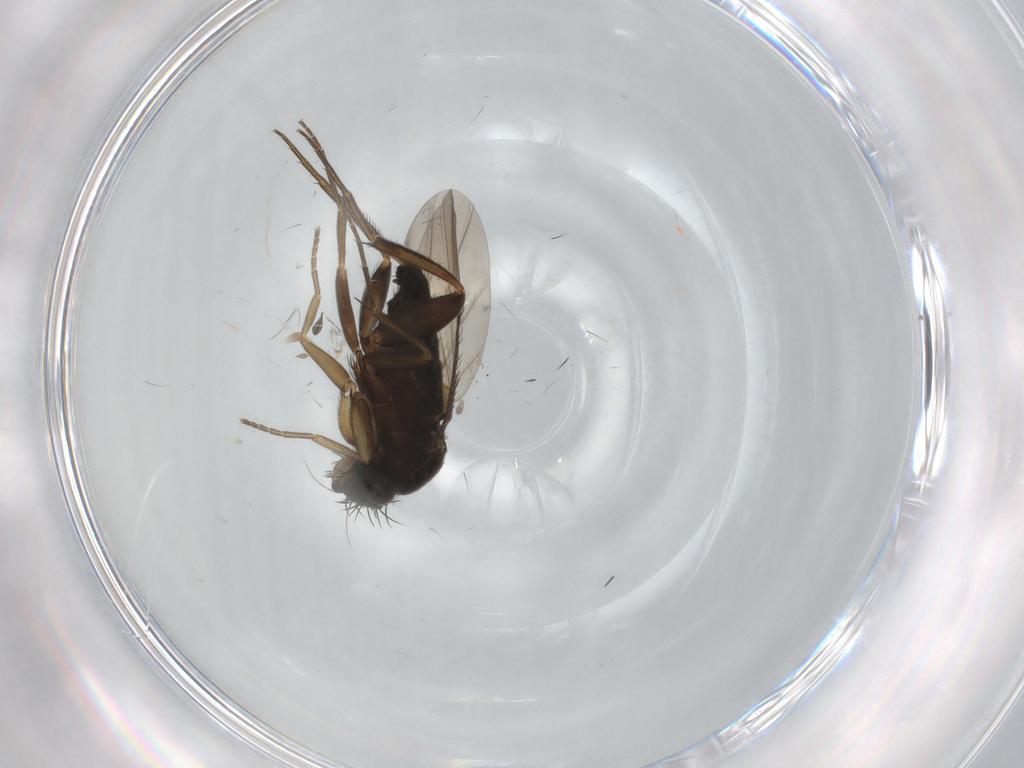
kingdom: Animalia
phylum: Arthropoda
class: Insecta
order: Diptera
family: Phoridae
